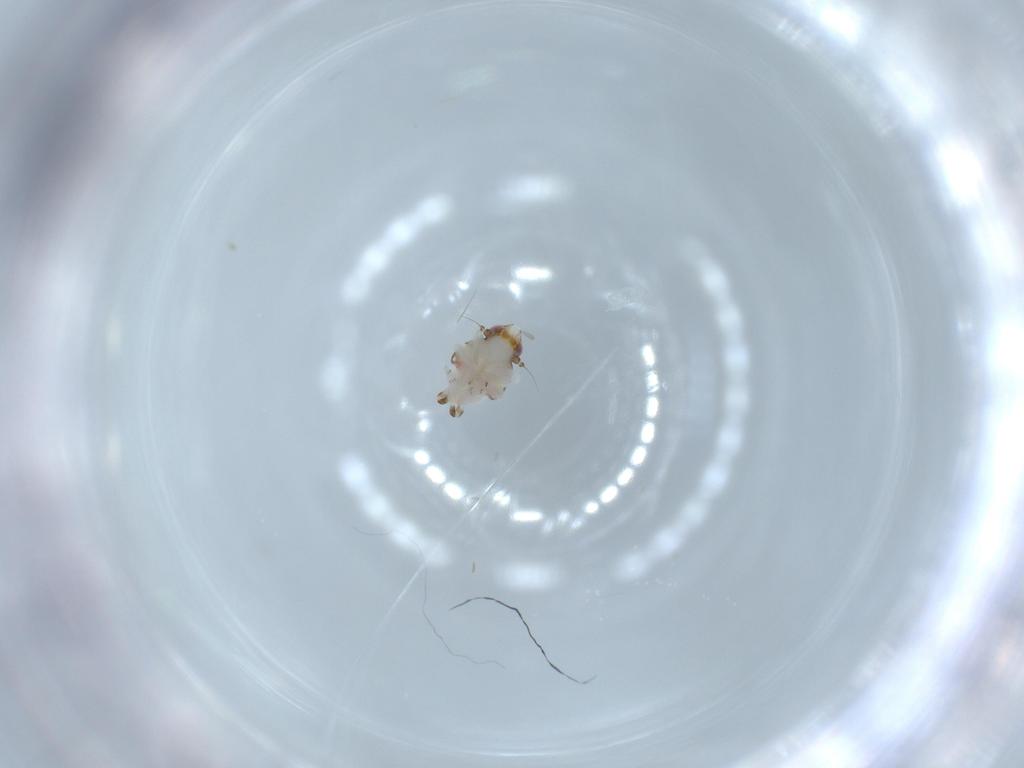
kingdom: Animalia
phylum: Arthropoda
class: Insecta
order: Hemiptera
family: Nogodinidae
